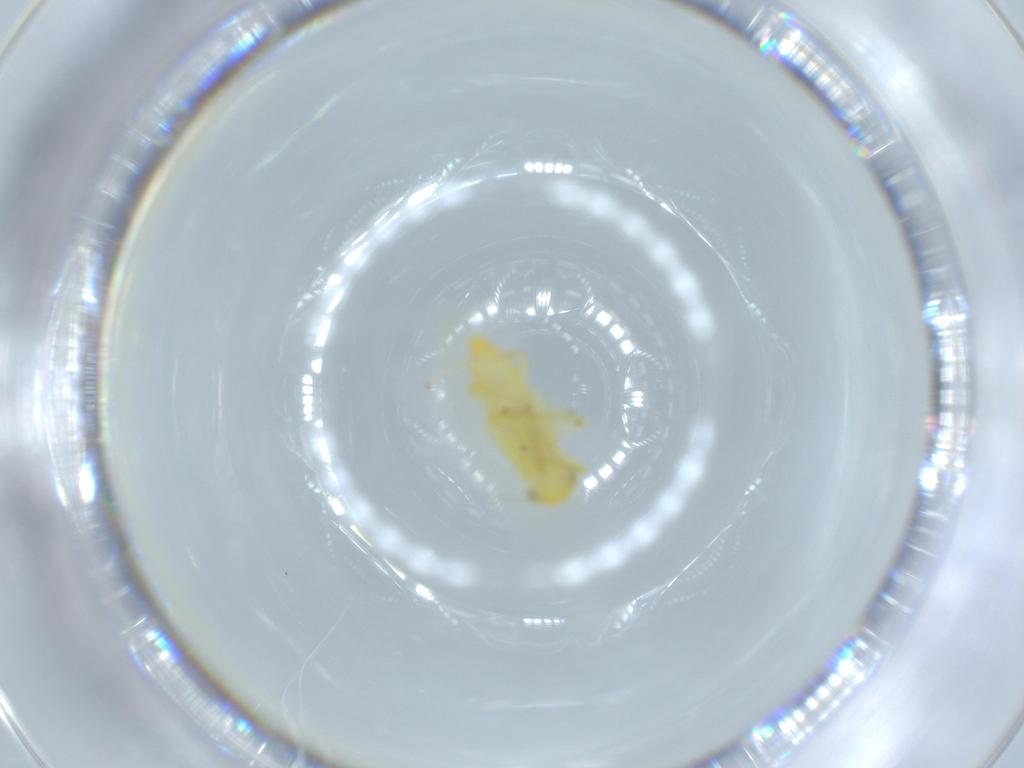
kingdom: Animalia
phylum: Arthropoda
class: Insecta
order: Hemiptera
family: Cicadellidae
